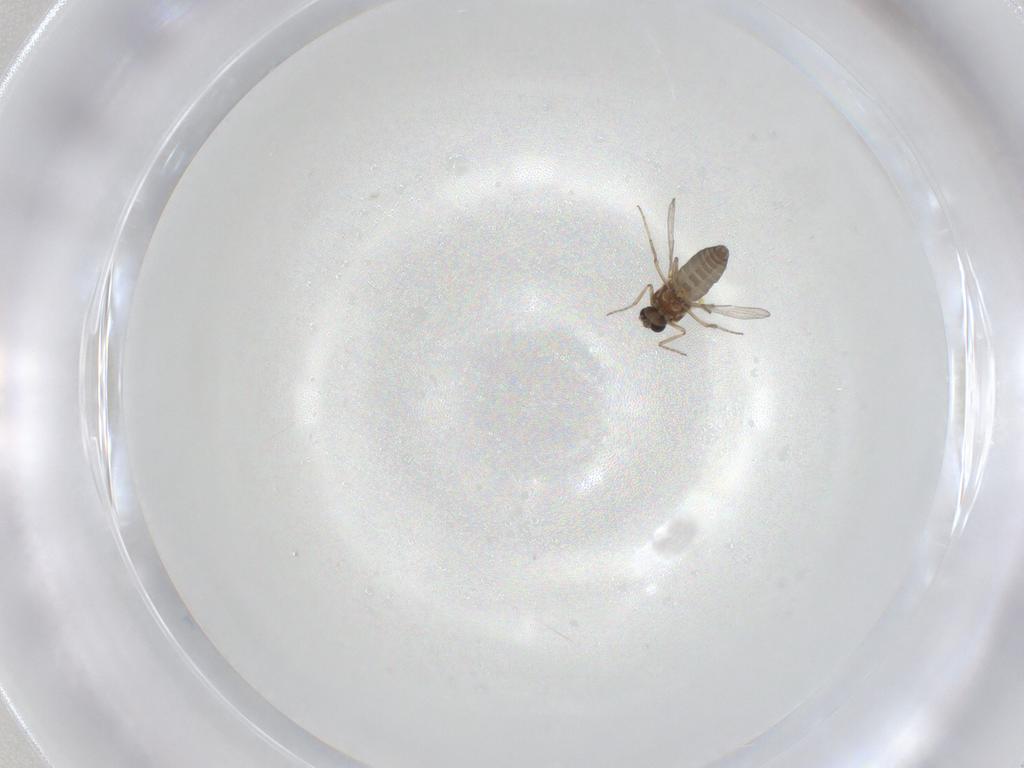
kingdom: Animalia
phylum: Arthropoda
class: Insecta
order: Diptera
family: Ceratopogonidae
